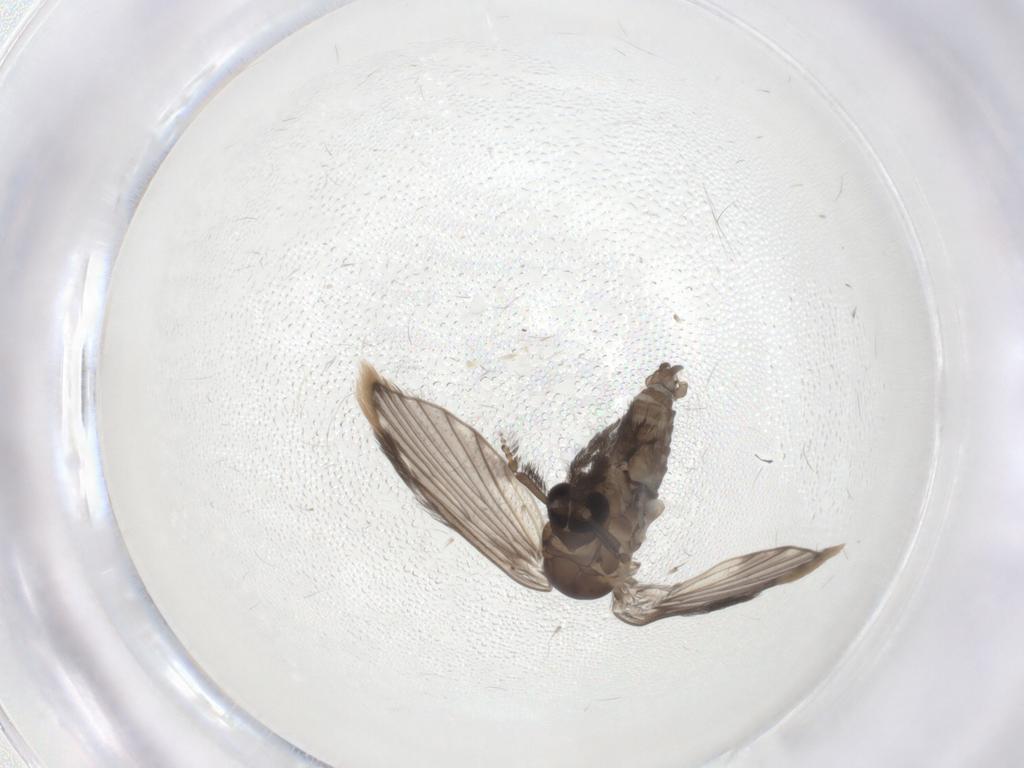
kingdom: Animalia
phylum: Arthropoda
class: Insecta
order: Diptera
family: Psychodidae
